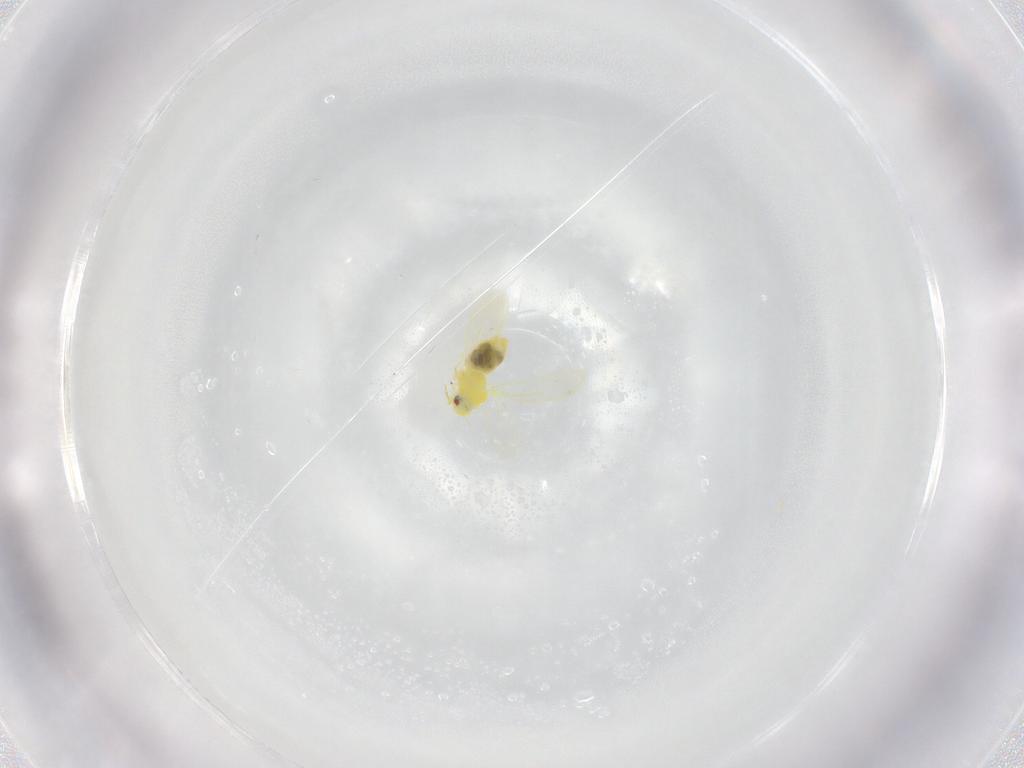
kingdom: Animalia
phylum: Arthropoda
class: Insecta
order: Hemiptera
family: Aleyrodidae
